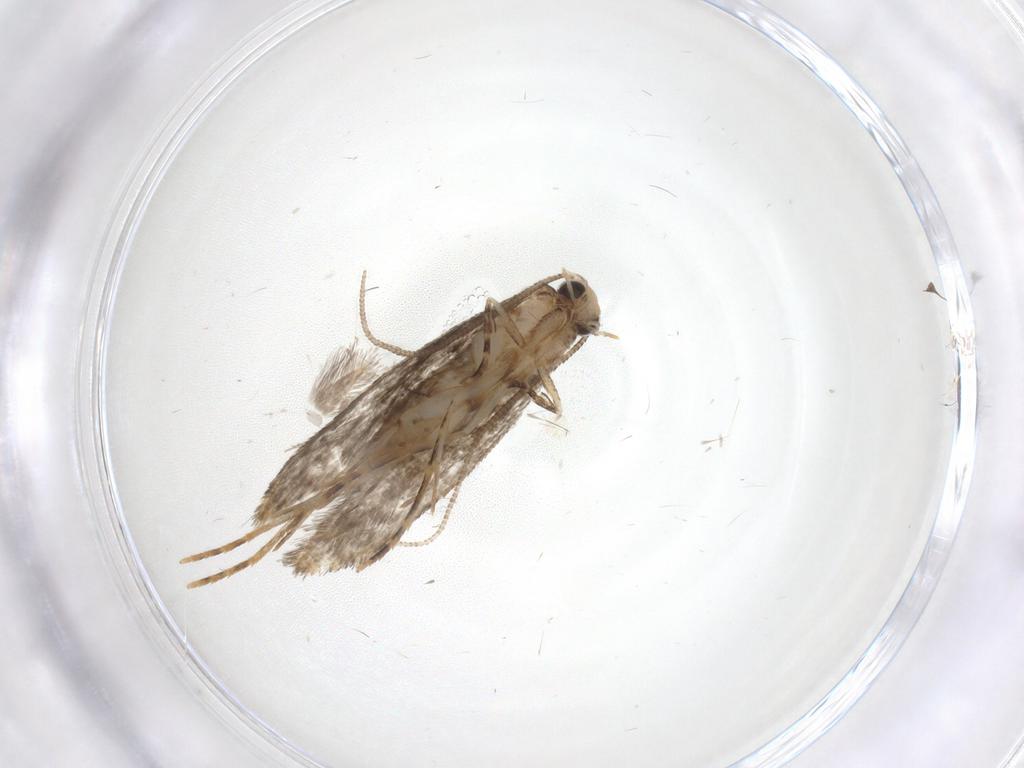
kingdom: Animalia
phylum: Arthropoda
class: Insecta
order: Lepidoptera
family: Tineidae
